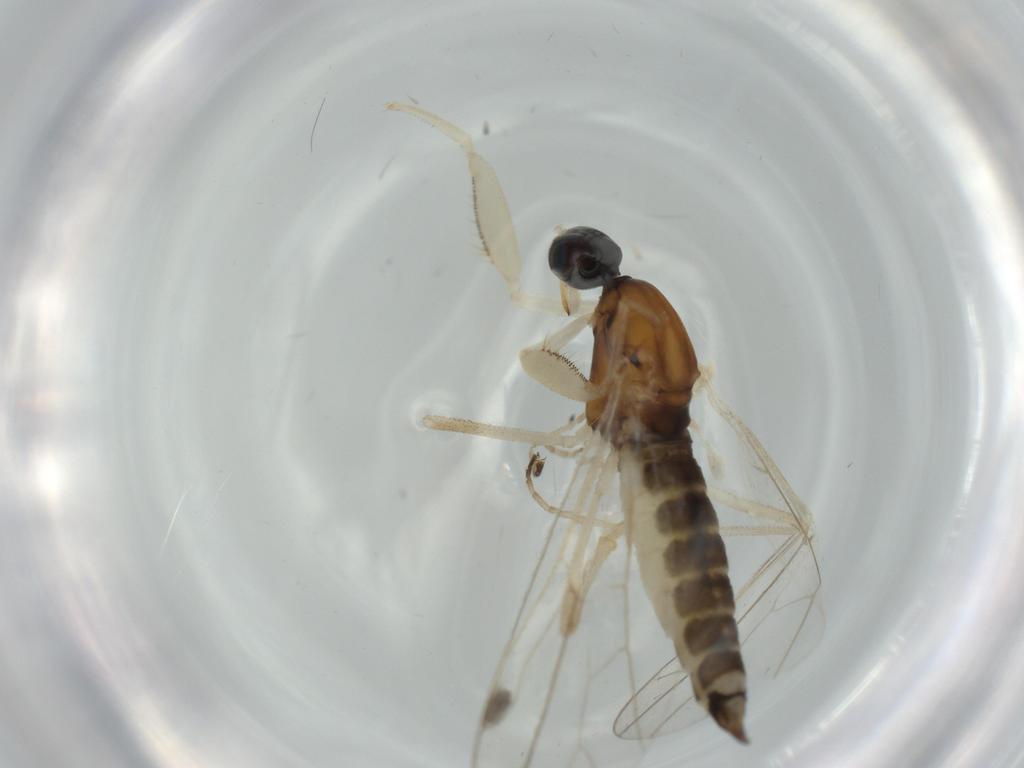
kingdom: Animalia
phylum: Arthropoda
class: Insecta
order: Diptera
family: Empididae
